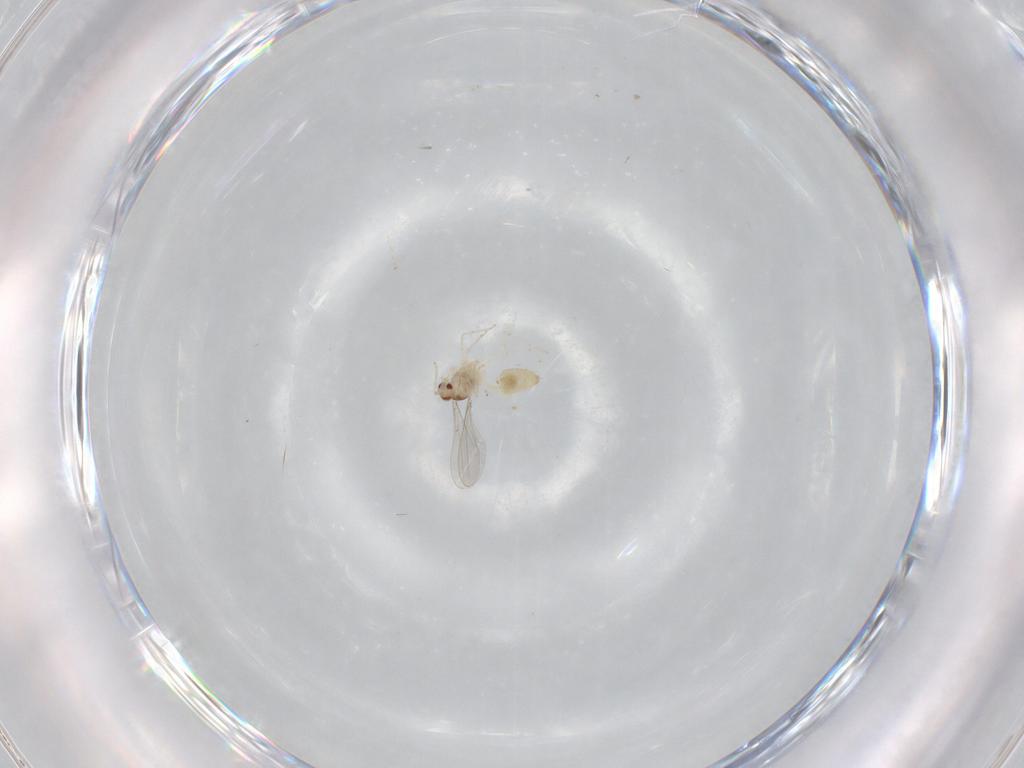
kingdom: Animalia
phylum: Arthropoda
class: Insecta
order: Diptera
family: Cecidomyiidae
